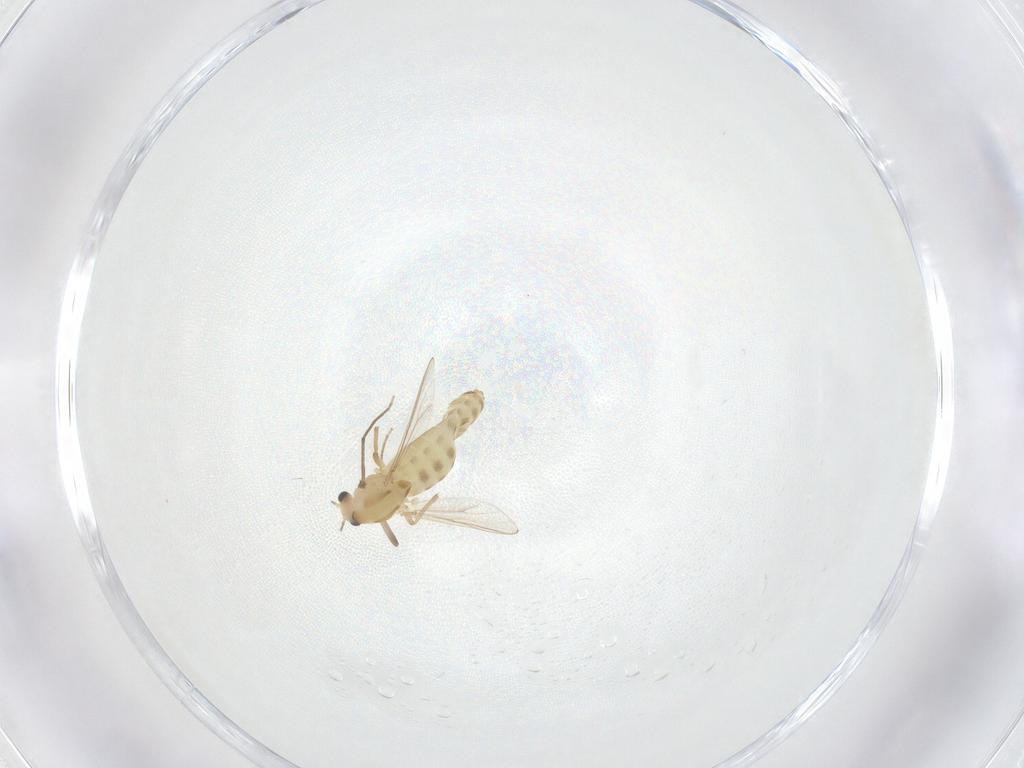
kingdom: Animalia
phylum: Arthropoda
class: Insecta
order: Diptera
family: Chironomidae
